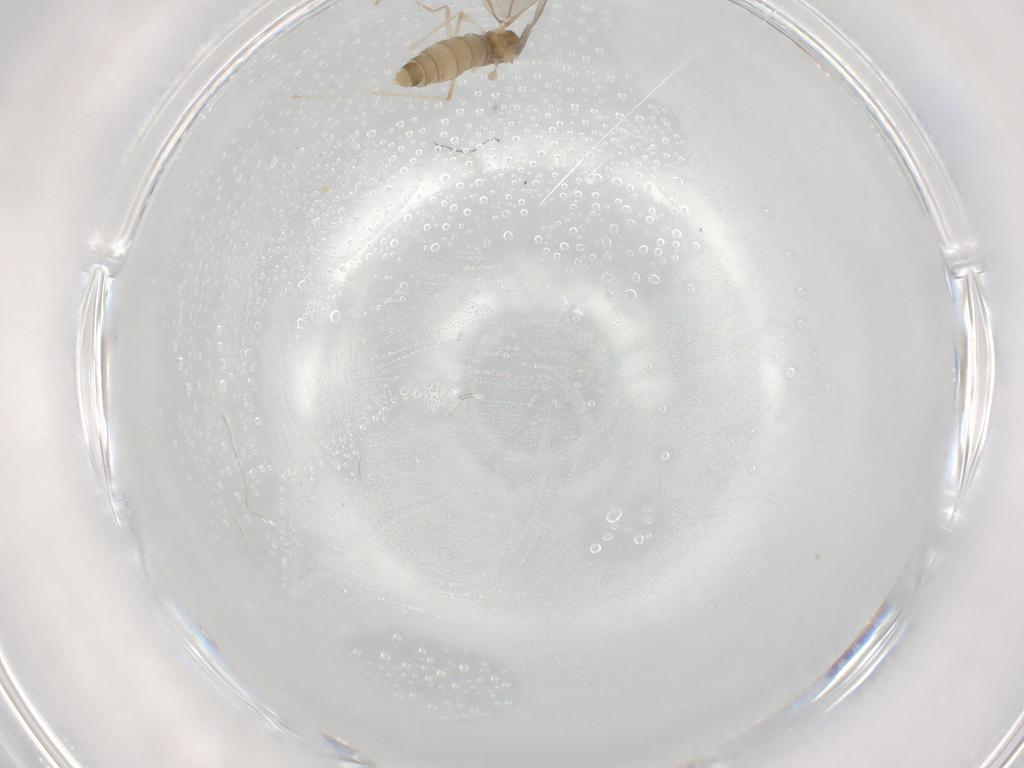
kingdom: Animalia
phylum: Arthropoda
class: Insecta
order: Diptera
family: Cecidomyiidae
